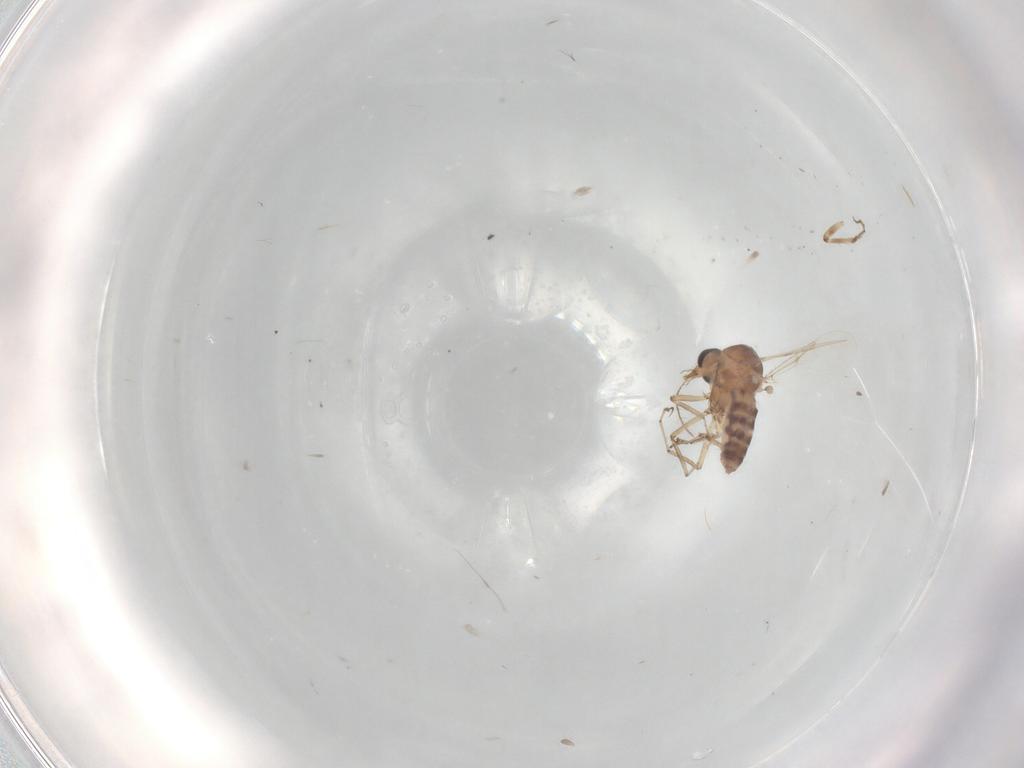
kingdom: Animalia
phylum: Arthropoda
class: Insecta
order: Diptera
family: Cecidomyiidae
